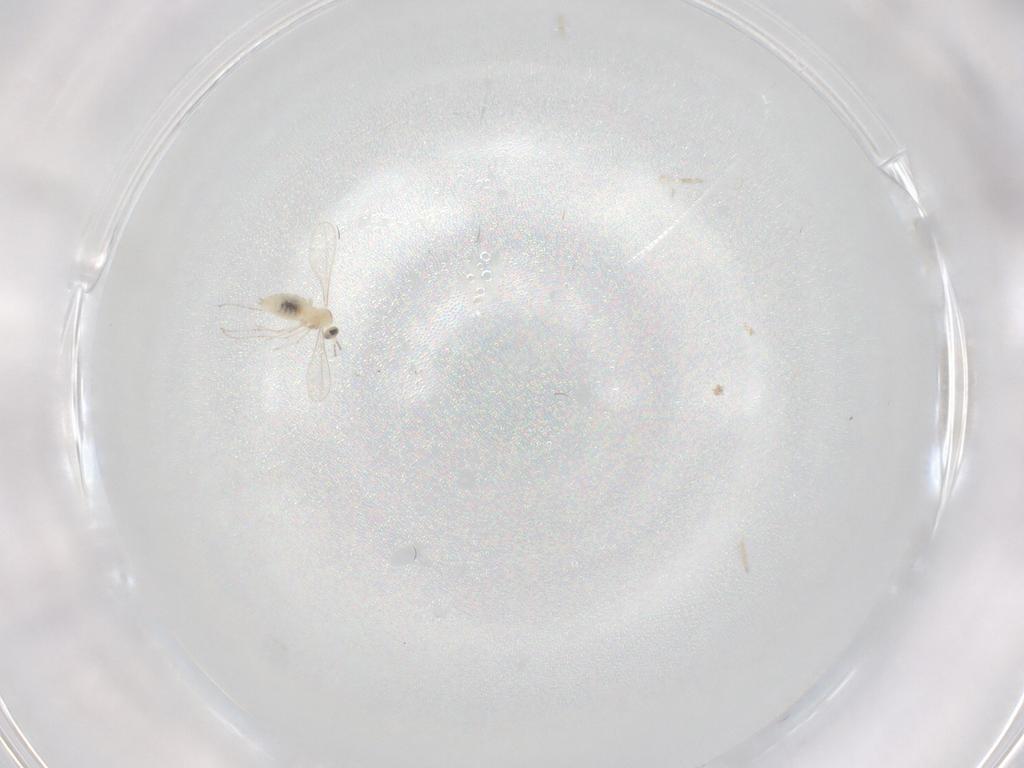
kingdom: Animalia
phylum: Arthropoda
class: Insecta
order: Diptera
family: Cecidomyiidae
